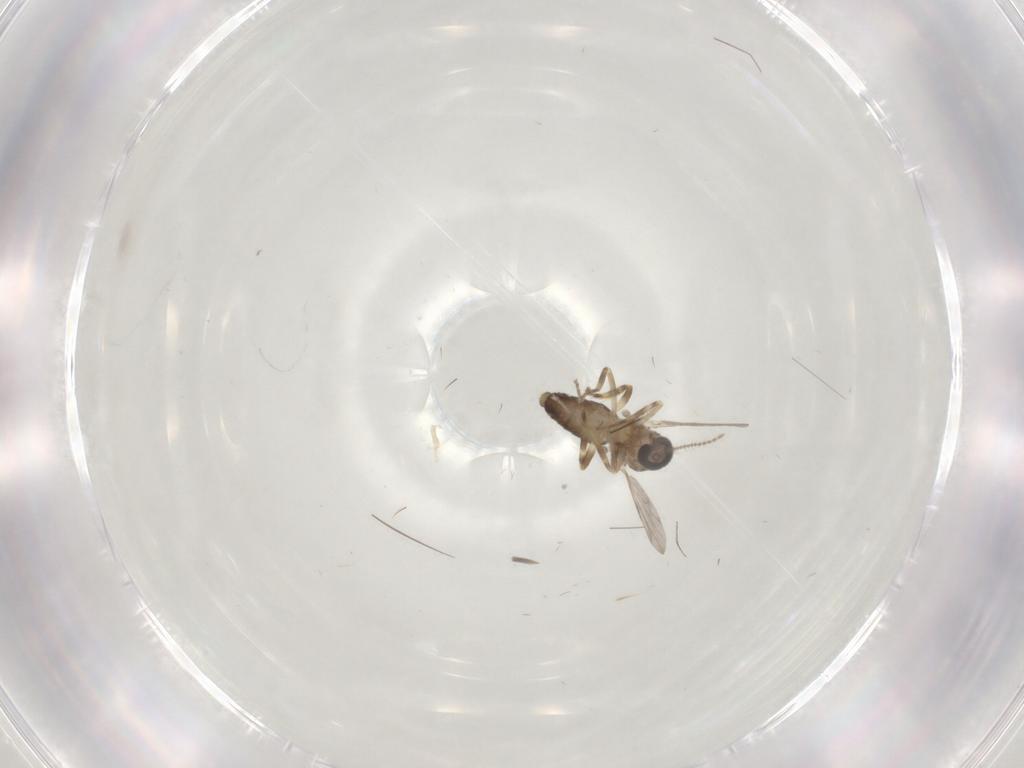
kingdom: Animalia
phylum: Arthropoda
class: Insecta
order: Diptera
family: Ceratopogonidae
